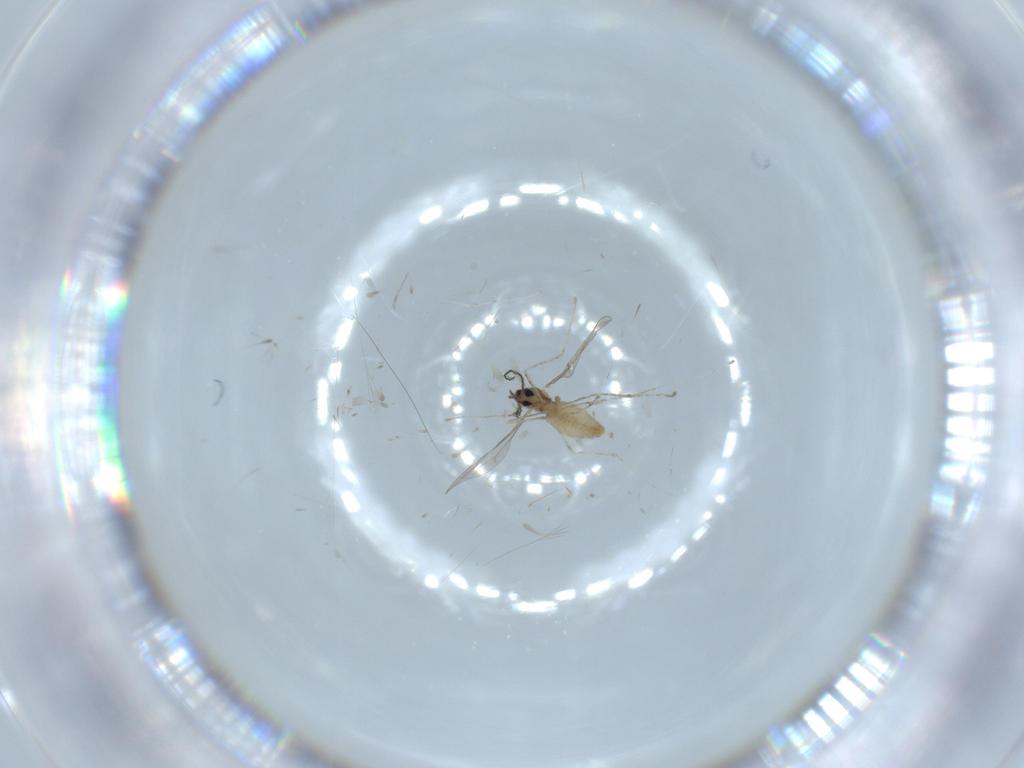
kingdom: Animalia
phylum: Arthropoda
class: Insecta
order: Diptera
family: Cecidomyiidae
